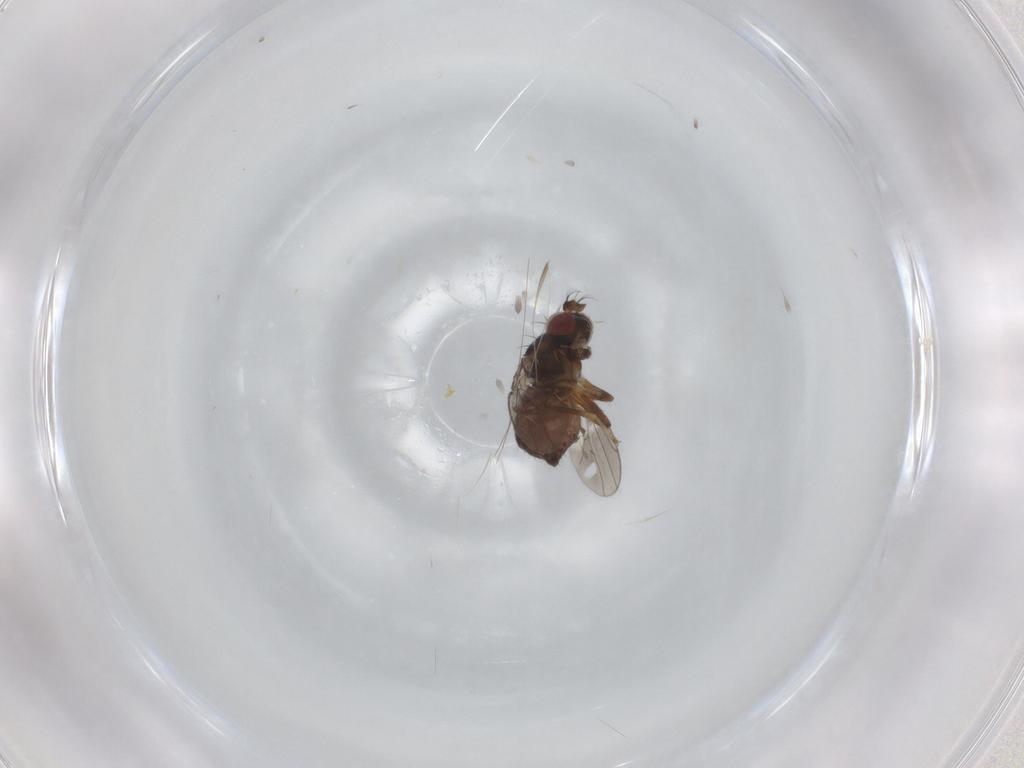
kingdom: Animalia
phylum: Arthropoda
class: Insecta
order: Diptera
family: Ephydridae
